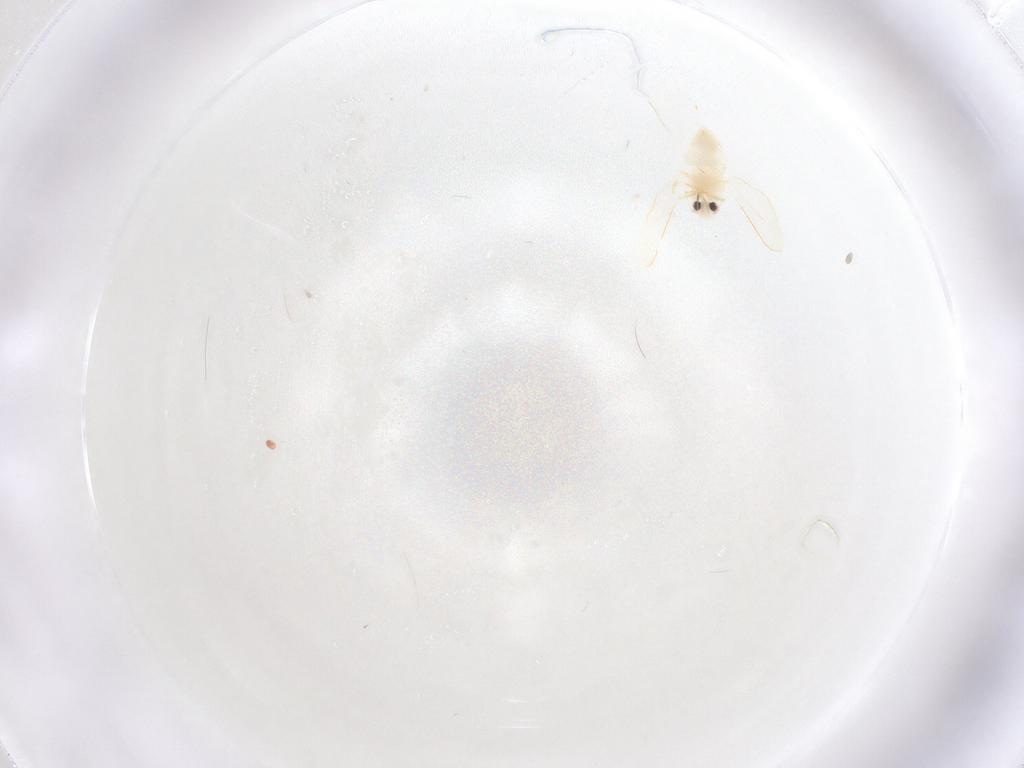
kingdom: Animalia
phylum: Arthropoda
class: Insecta
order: Hemiptera
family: Aleyrodidae
